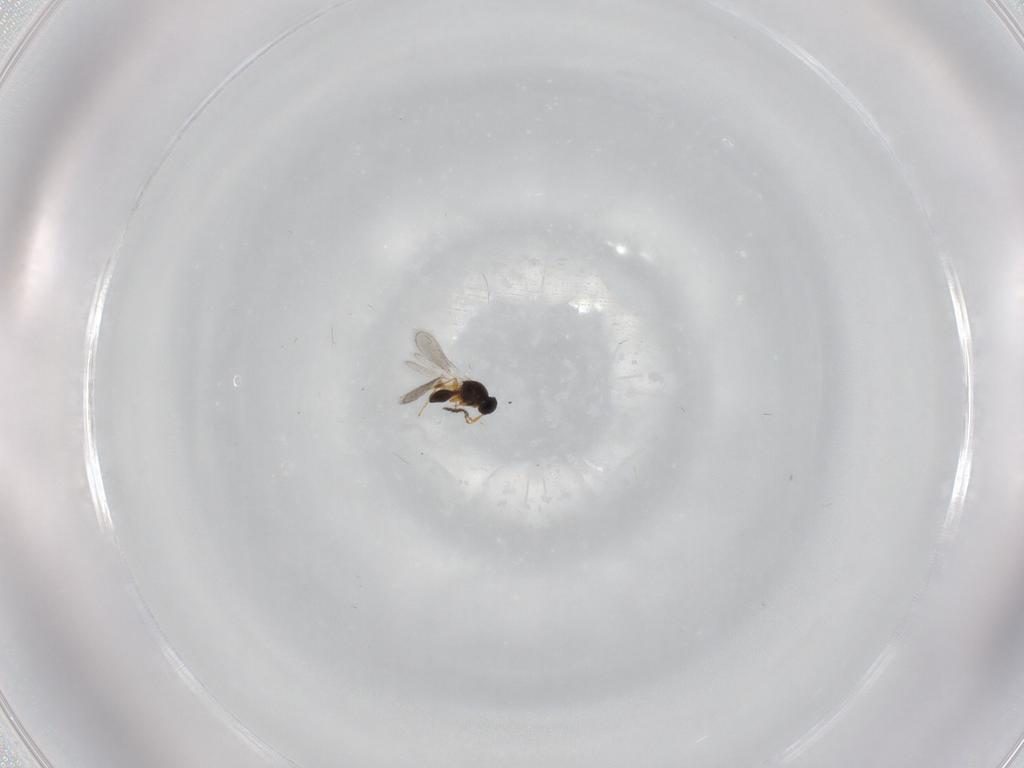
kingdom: Animalia
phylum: Arthropoda
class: Insecta
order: Hymenoptera
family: Platygastridae
